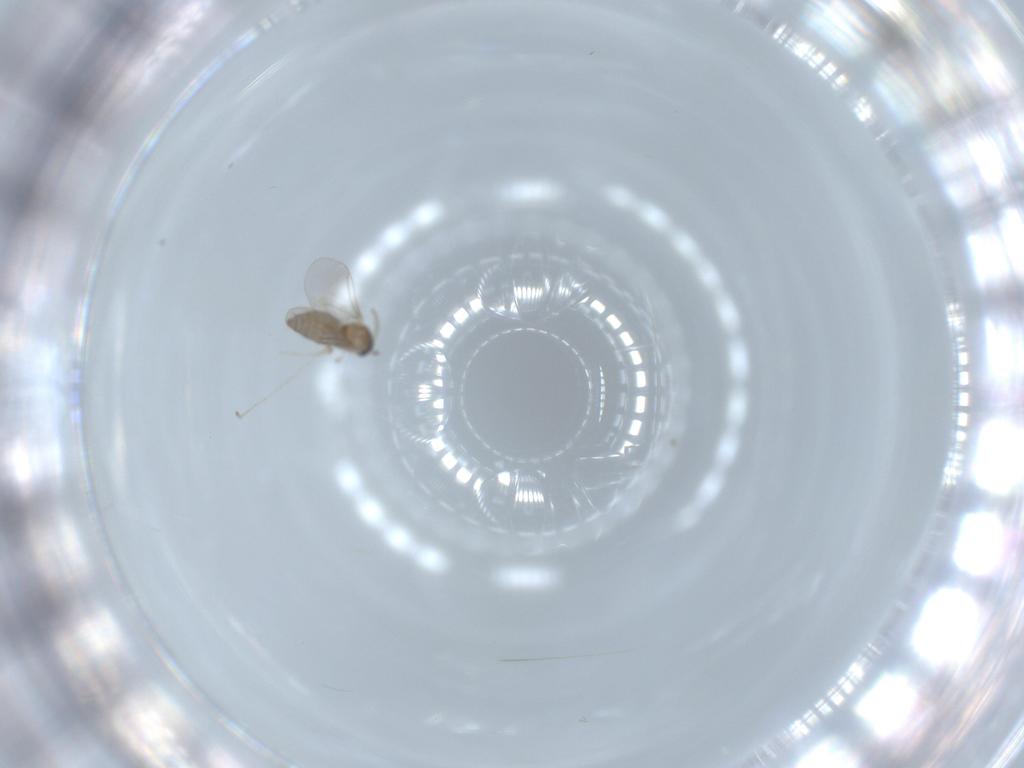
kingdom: Animalia
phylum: Arthropoda
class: Insecta
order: Diptera
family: Cecidomyiidae
